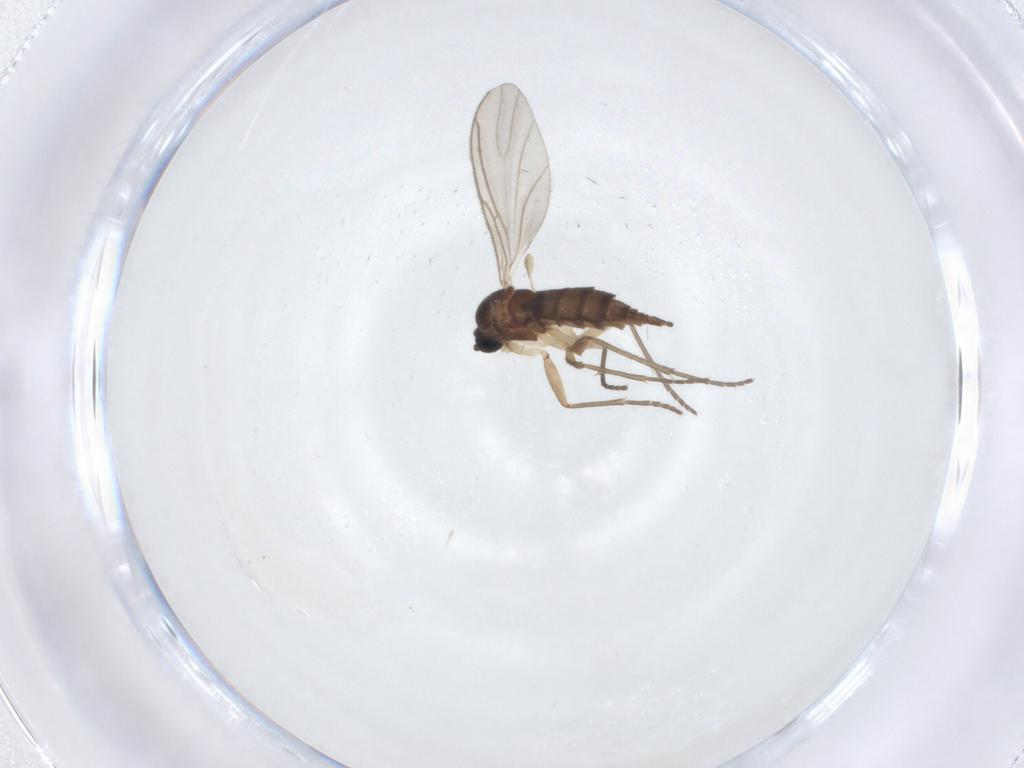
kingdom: Animalia
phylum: Arthropoda
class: Insecta
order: Diptera
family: Sciaridae
